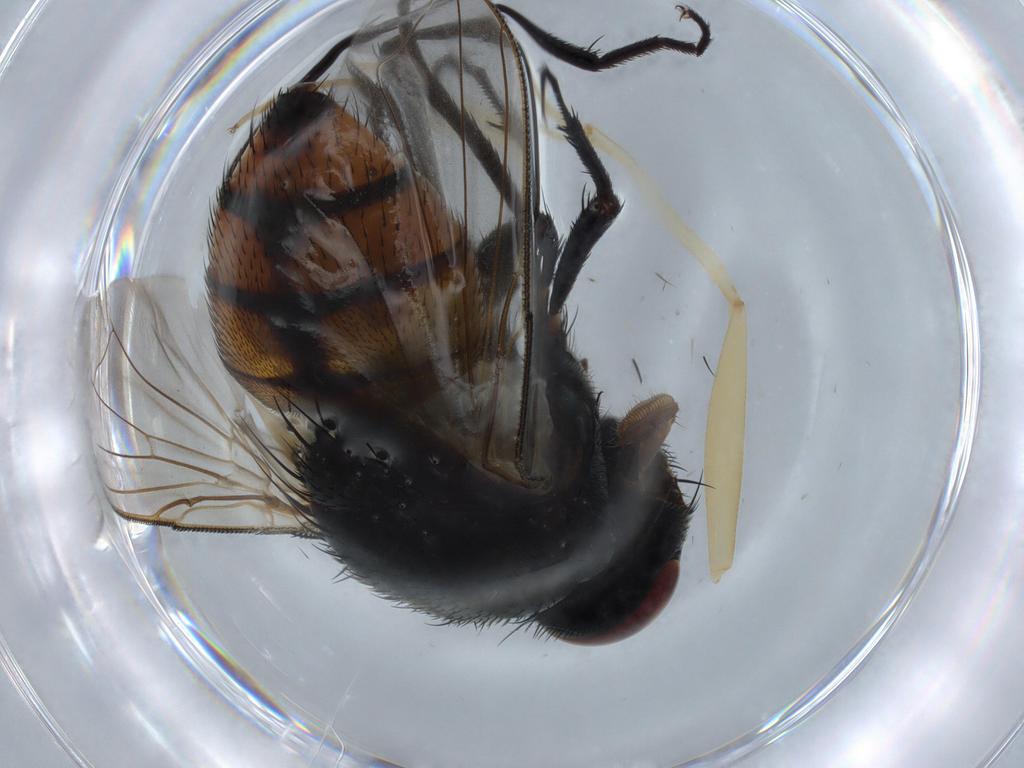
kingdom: Animalia
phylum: Arthropoda
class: Insecta
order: Diptera
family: Muscidae
